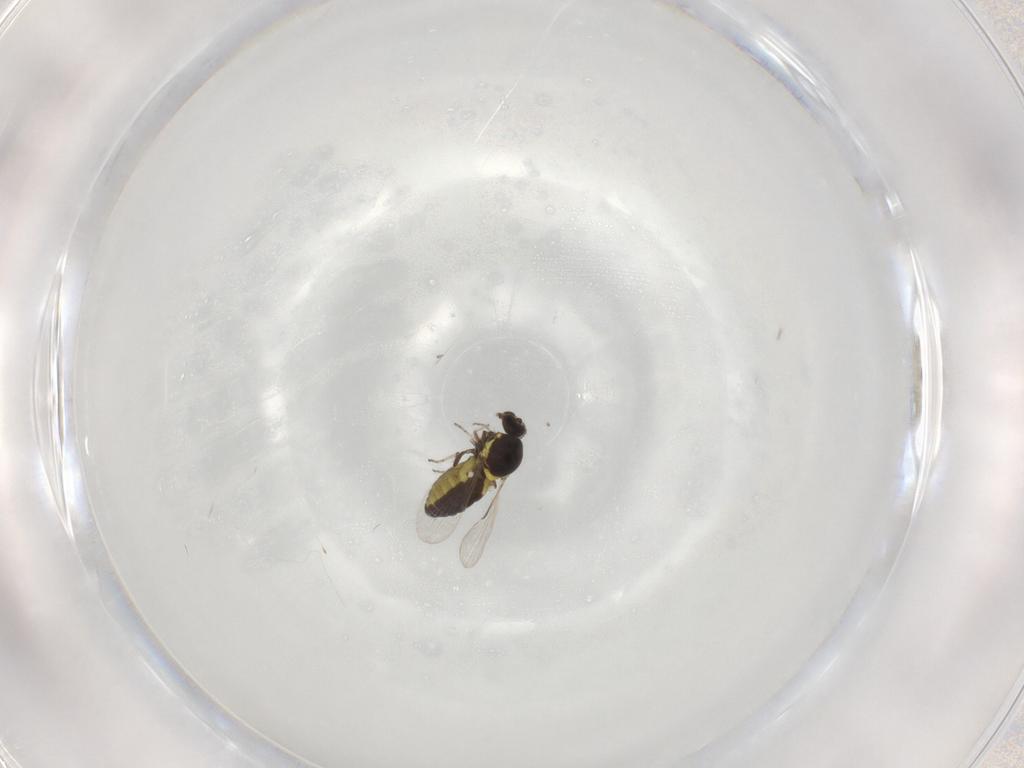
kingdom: Animalia
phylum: Arthropoda
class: Insecta
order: Diptera
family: Ceratopogonidae
